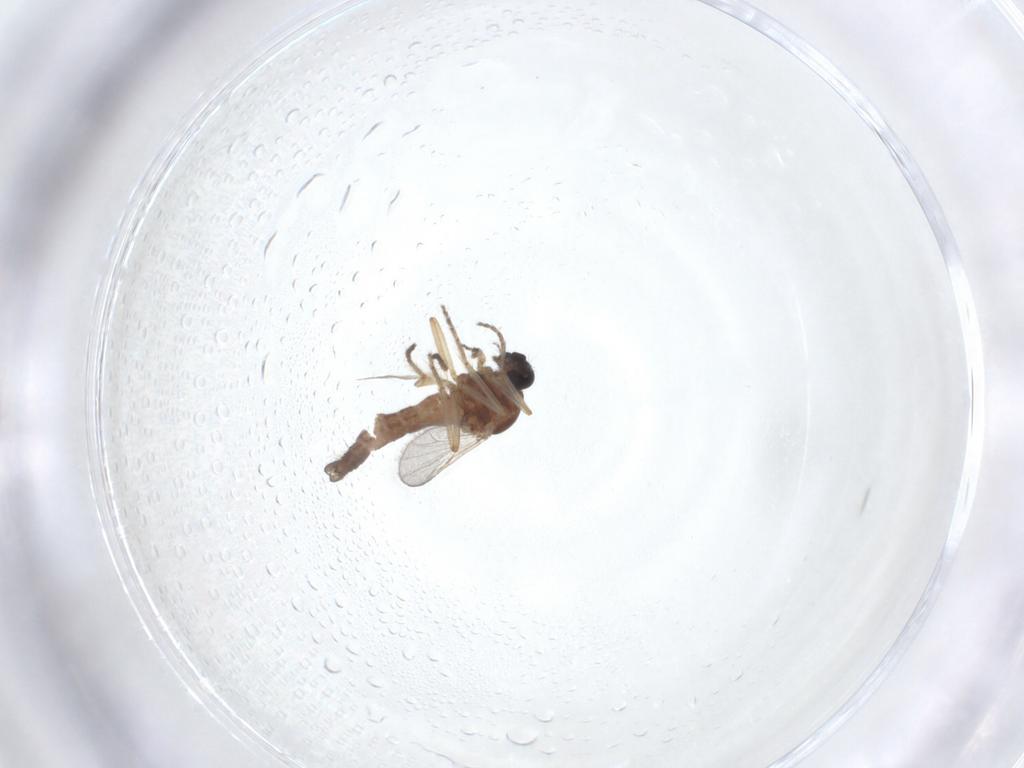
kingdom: Animalia
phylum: Arthropoda
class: Insecta
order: Diptera
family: Ceratopogonidae
